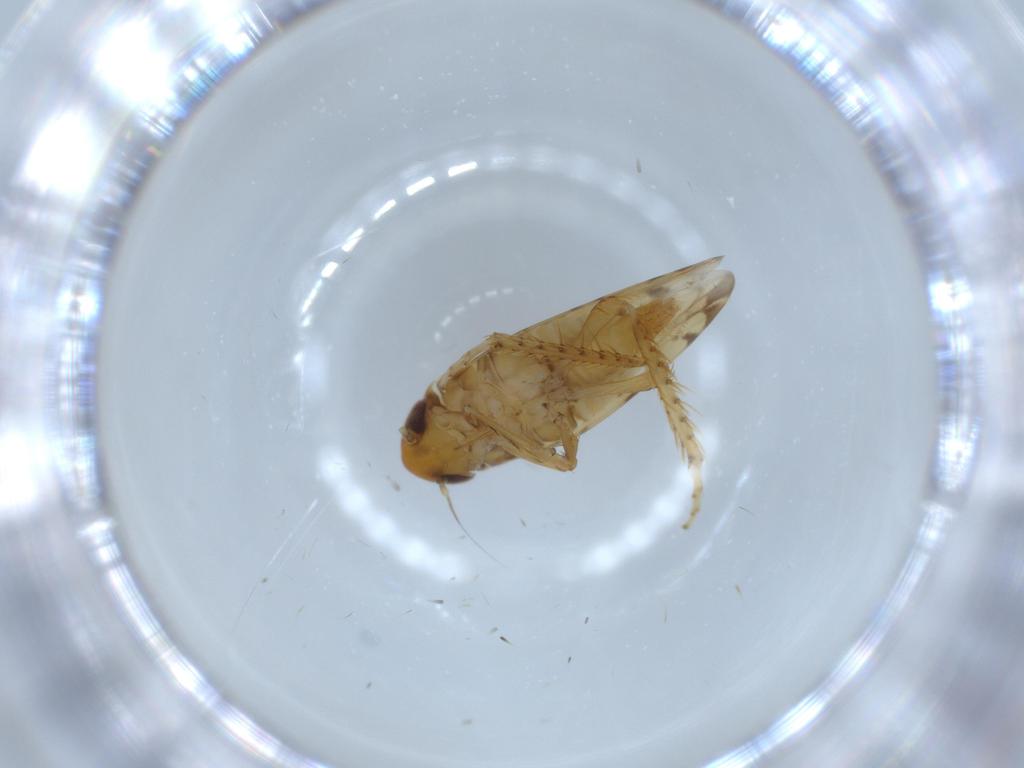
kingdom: Animalia
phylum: Arthropoda
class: Insecta
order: Hemiptera
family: Cicadellidae
